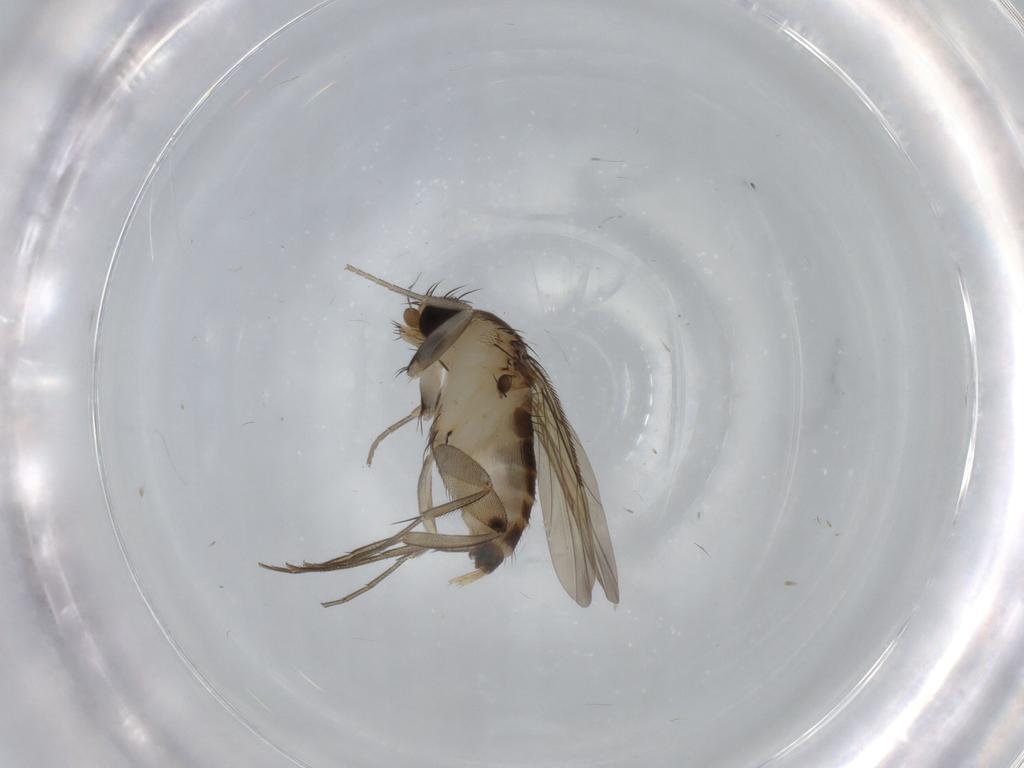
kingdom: Animalia
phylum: Arthropoda
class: Insecta
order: Diptera
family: Phoridae
